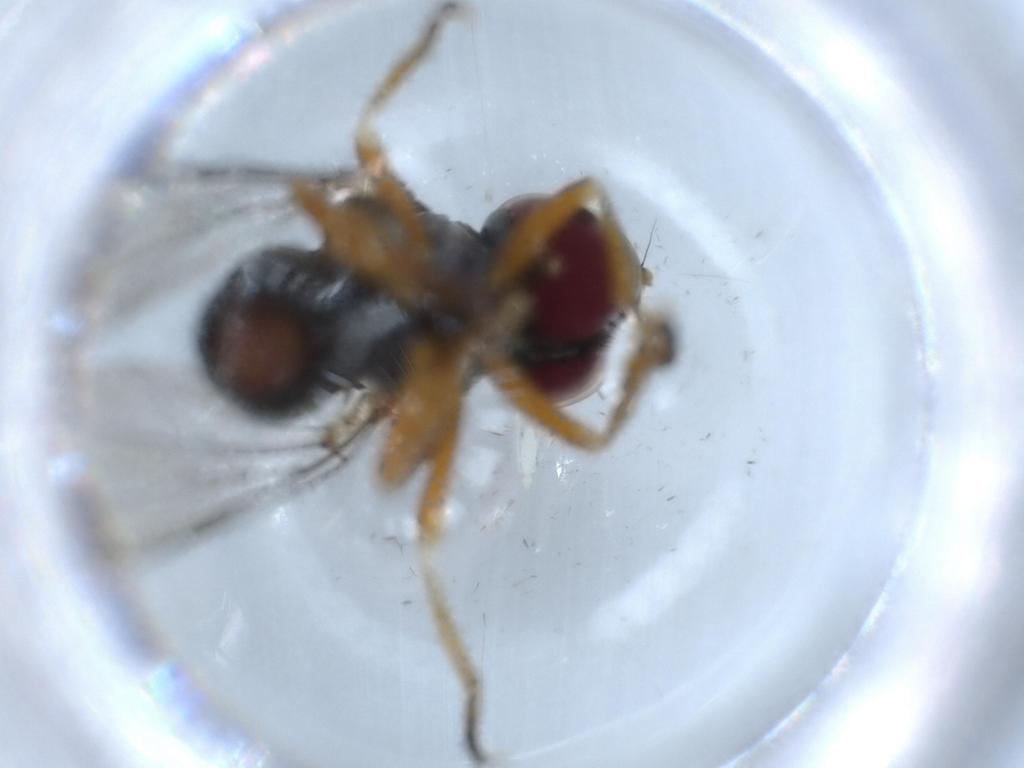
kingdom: Animalia
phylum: Arthropoda
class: Insecta
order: Diptera
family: Pipunculidae
